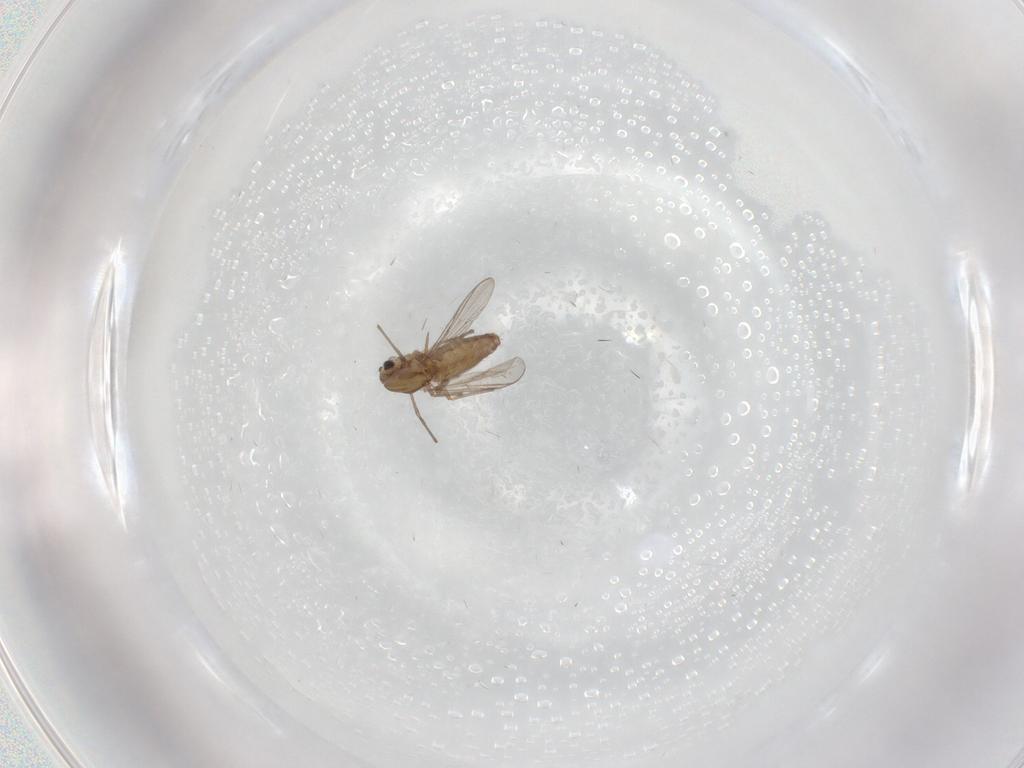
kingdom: Animalia
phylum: Arthropoda
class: Insecta
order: Diptera
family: Chironomidae
